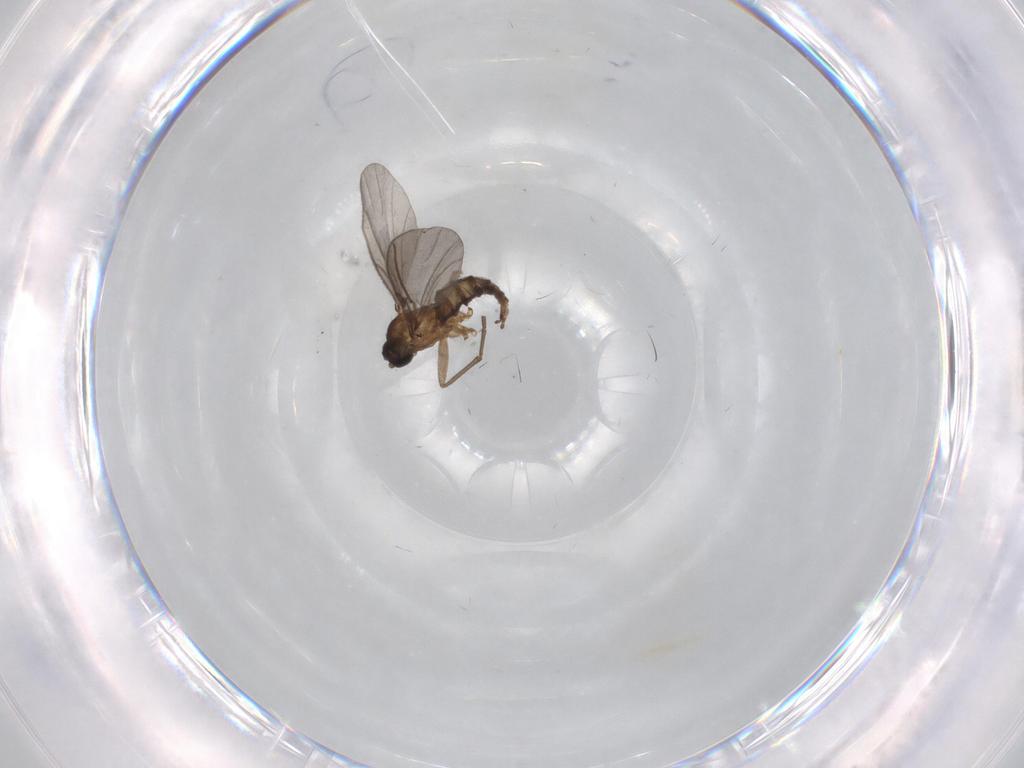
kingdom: Animalia
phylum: Arthropoda
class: Insecta
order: Diptera
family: Sciaridae
